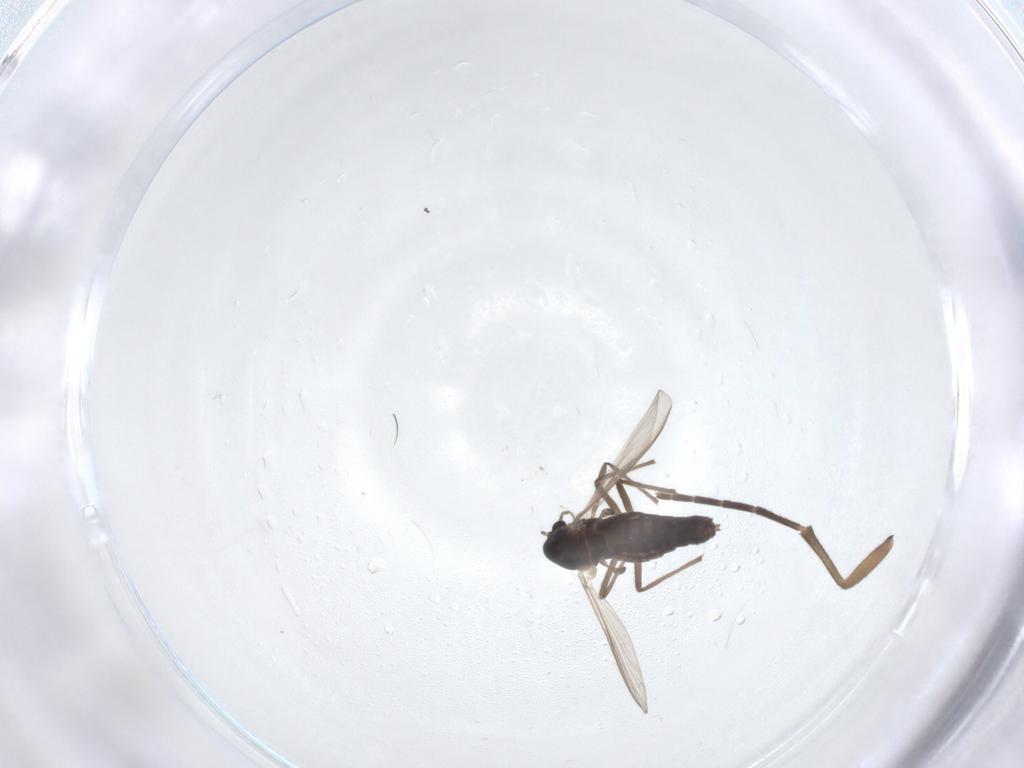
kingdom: Animalia
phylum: Arthropoda
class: Insecta
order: Diptera
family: Chironomidae
